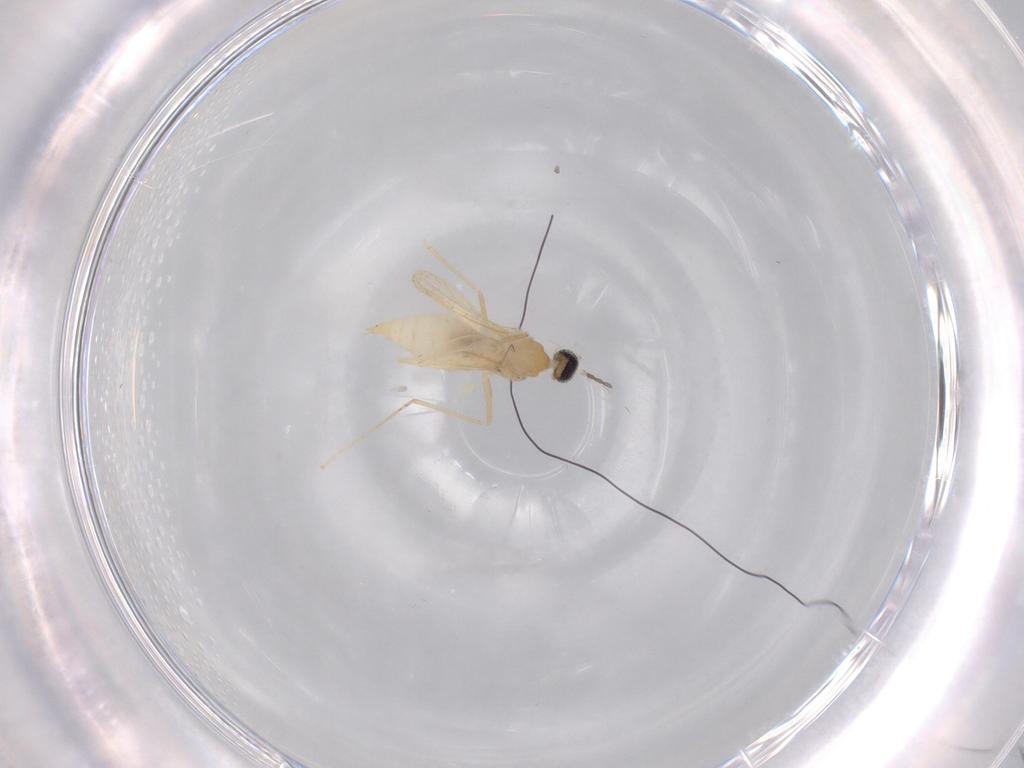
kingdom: Animalia
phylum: Arthropoda
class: Insecta
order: Diptera
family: Cecidomyiidae
